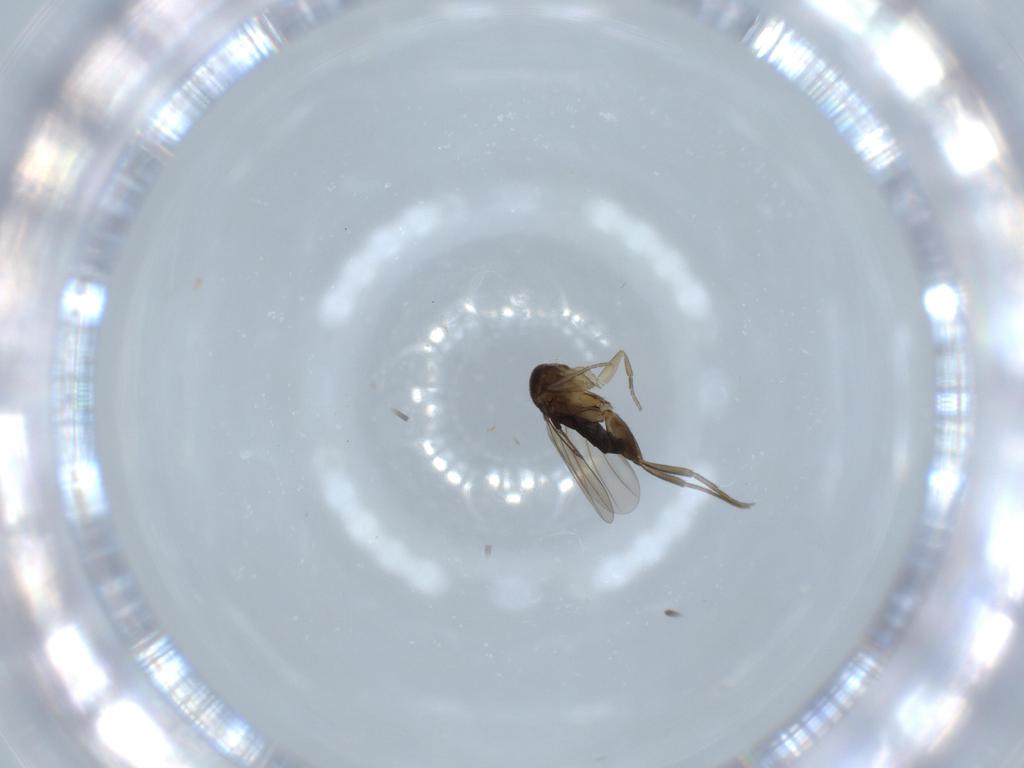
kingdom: Animalia
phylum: Arthropoda
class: Insecta
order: Diptera
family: Phoridae
